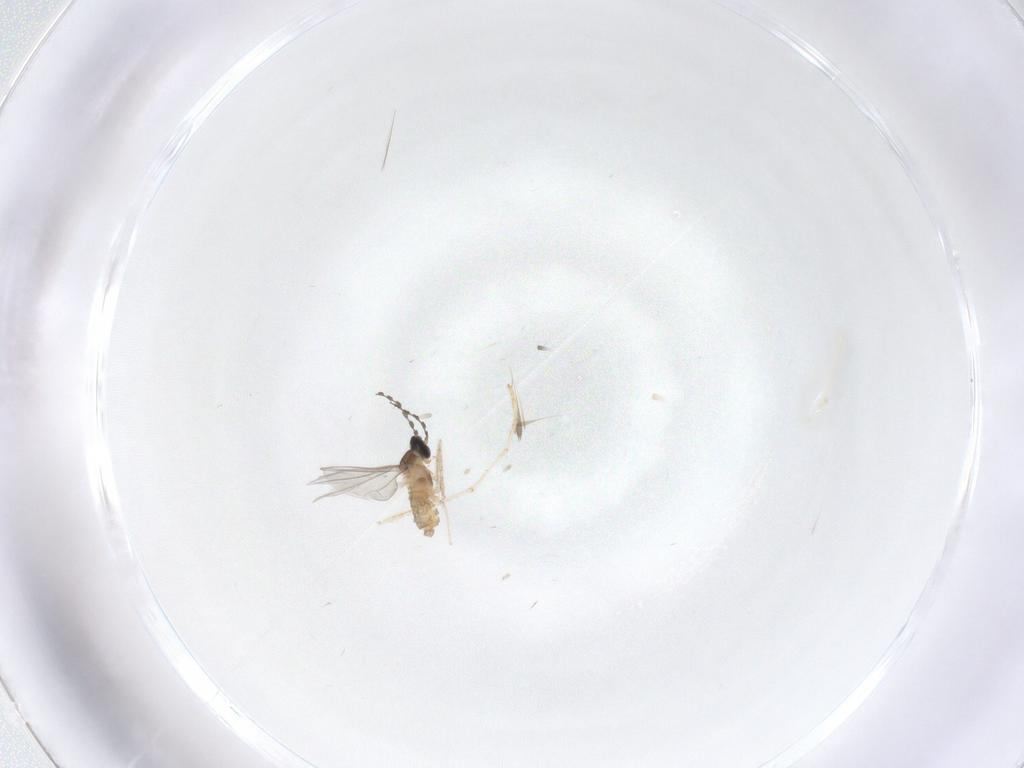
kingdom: Animalia
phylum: Arthropoda
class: Insecta
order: Diptera
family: Cecidomyiidae
